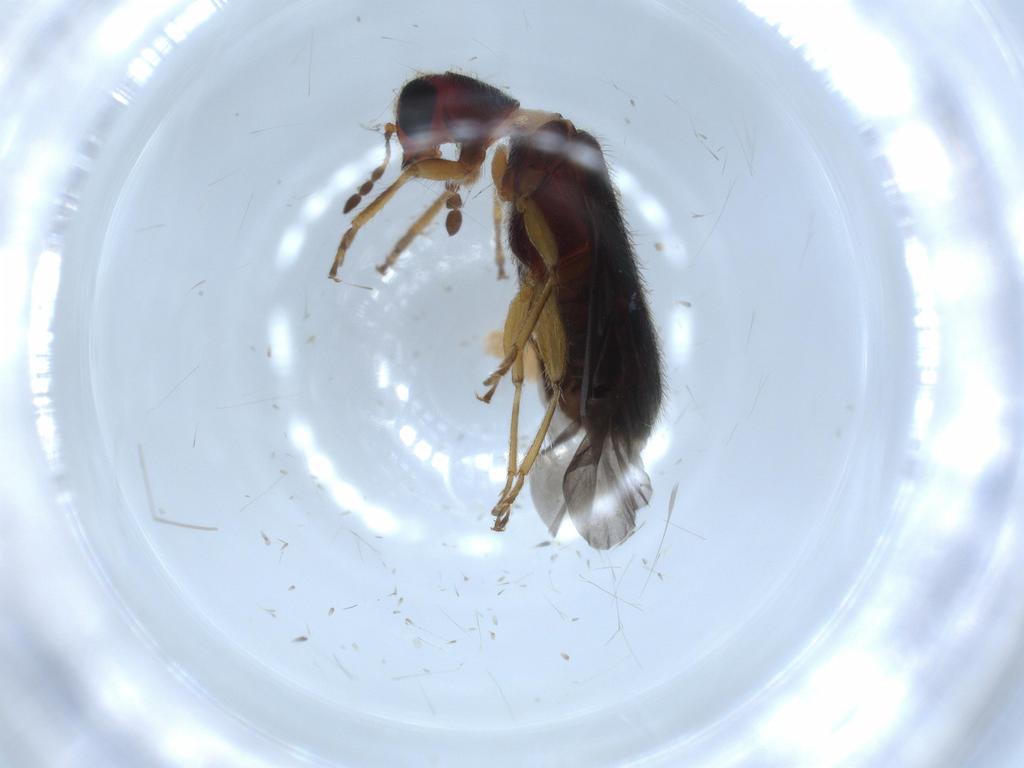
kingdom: Animalia
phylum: Arthropoda
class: Insecta
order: Coleoptera
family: Cleridae
